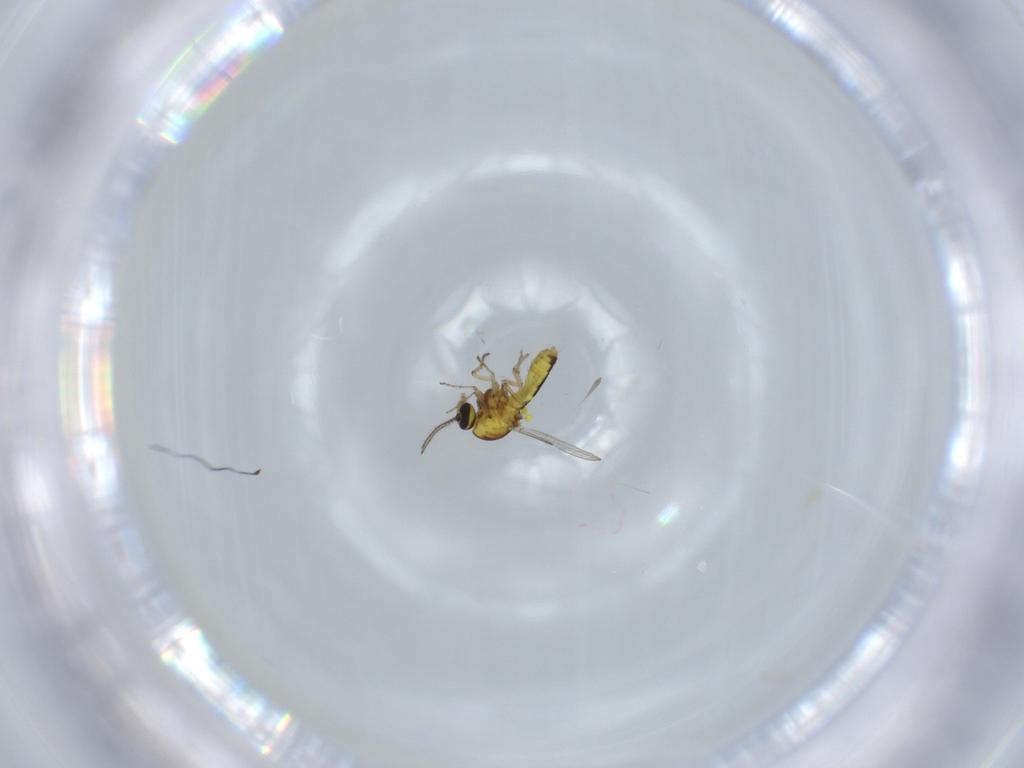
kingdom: Animalia
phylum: Arthropoda
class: Insecta
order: Diptera
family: Ceratopogonidae
